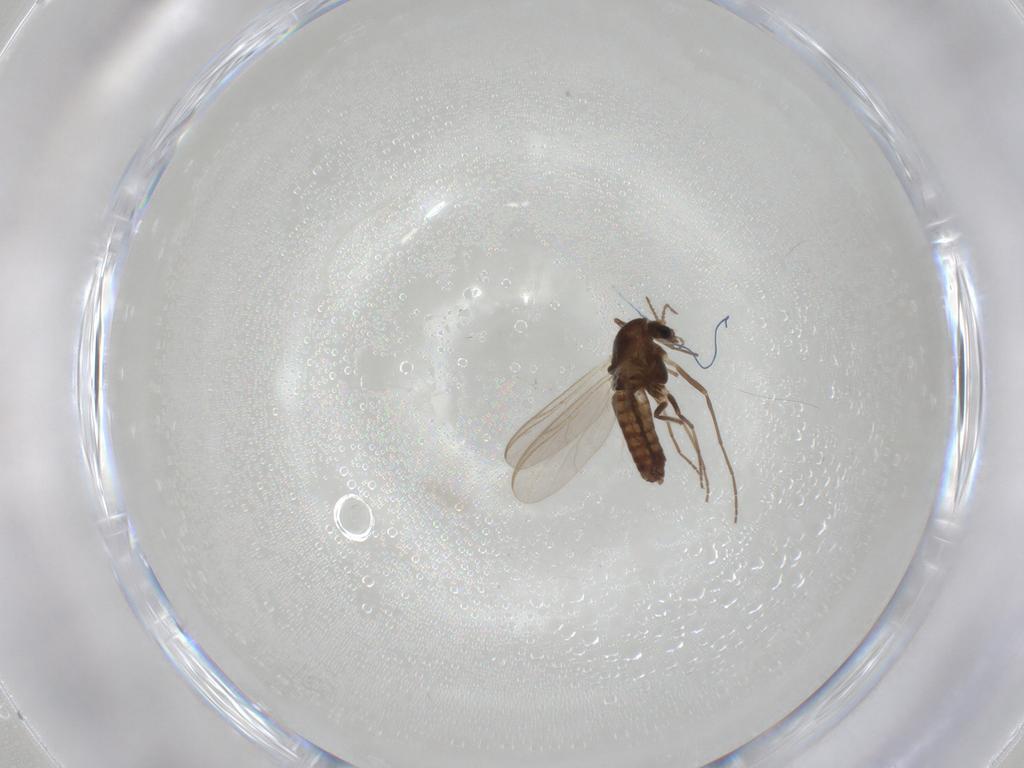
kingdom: Animalia
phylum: Arthropoda
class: Insecta
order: Diptera
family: Chironomidae
